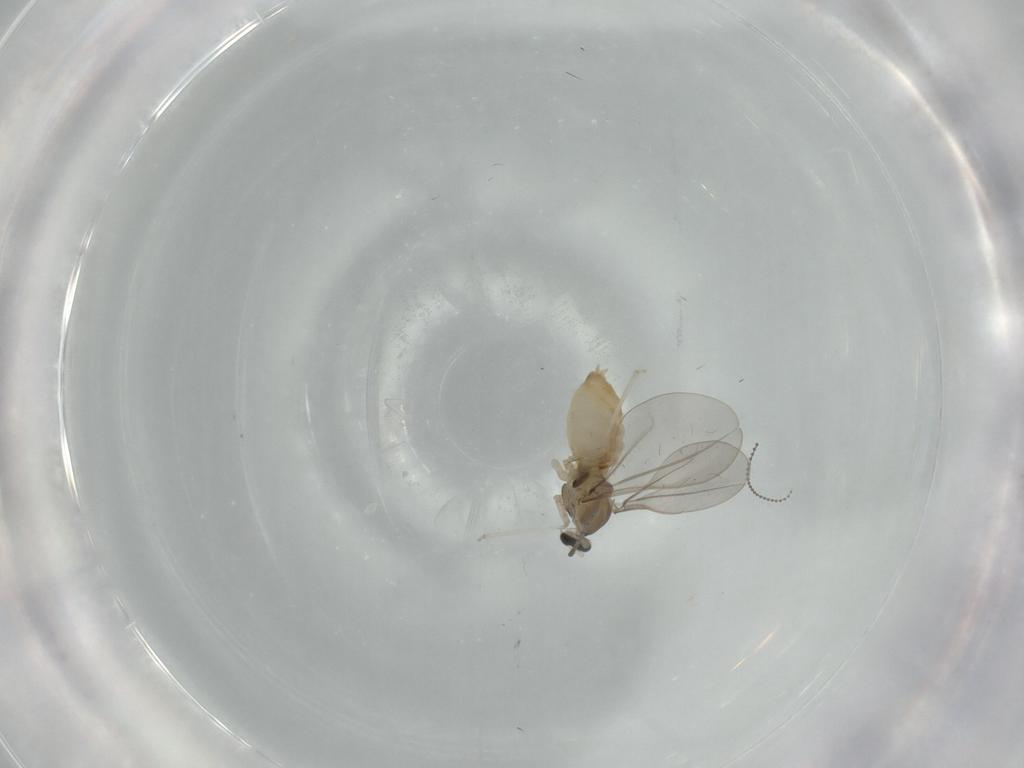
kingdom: Animalia
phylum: Arthropoda
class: Insecta
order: Diptera
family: Cecidomyiidae
